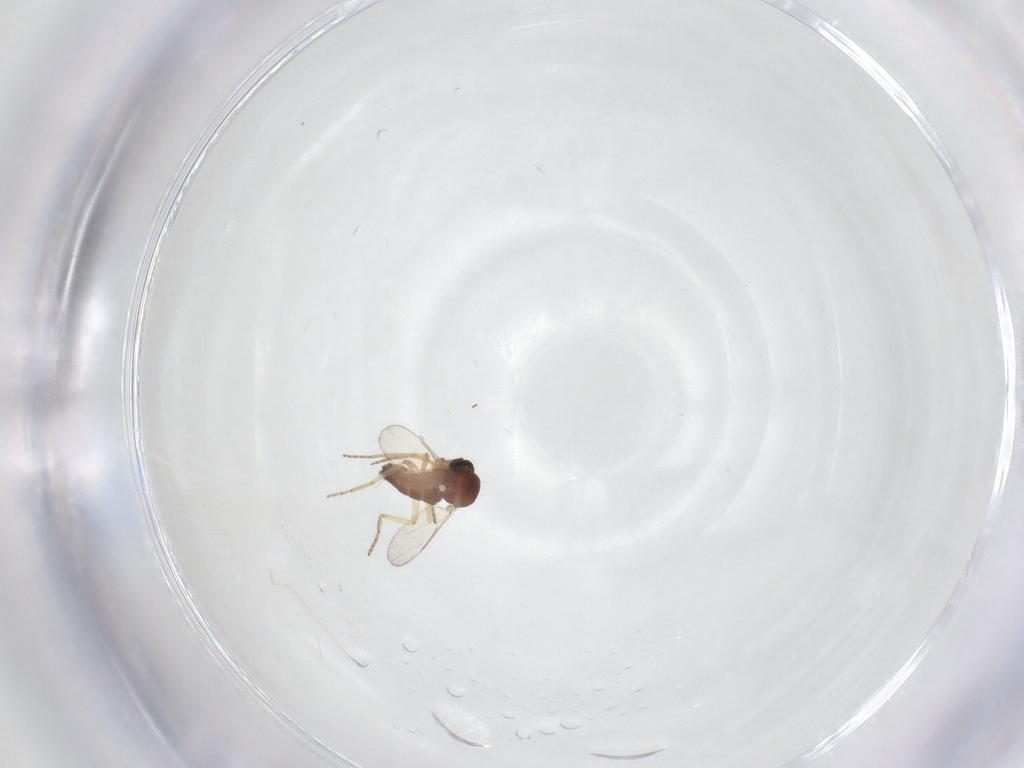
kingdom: Animalia
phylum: Arthropoda
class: Insecta
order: Diptera
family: Ceratopogonidae
